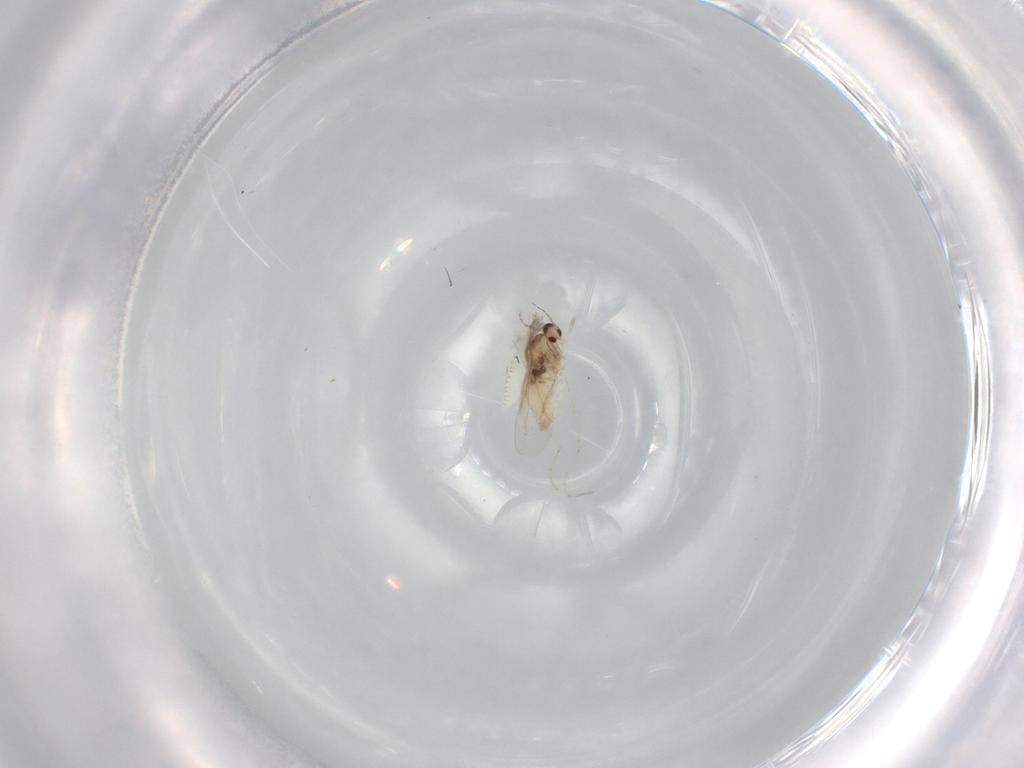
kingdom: Animalia
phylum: Arthropoda
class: Insecta
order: Diptera
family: Cecidomyiidae
